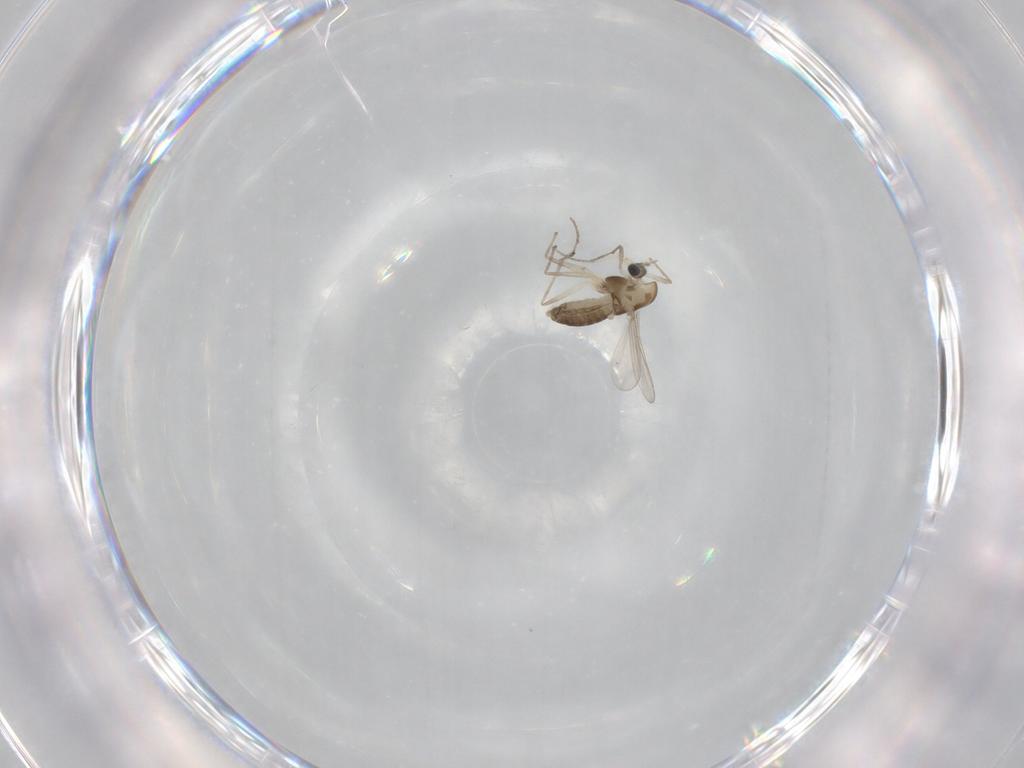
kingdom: Animalia
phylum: Arthropoda
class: Insecta
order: Diptera
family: Chironomidae
